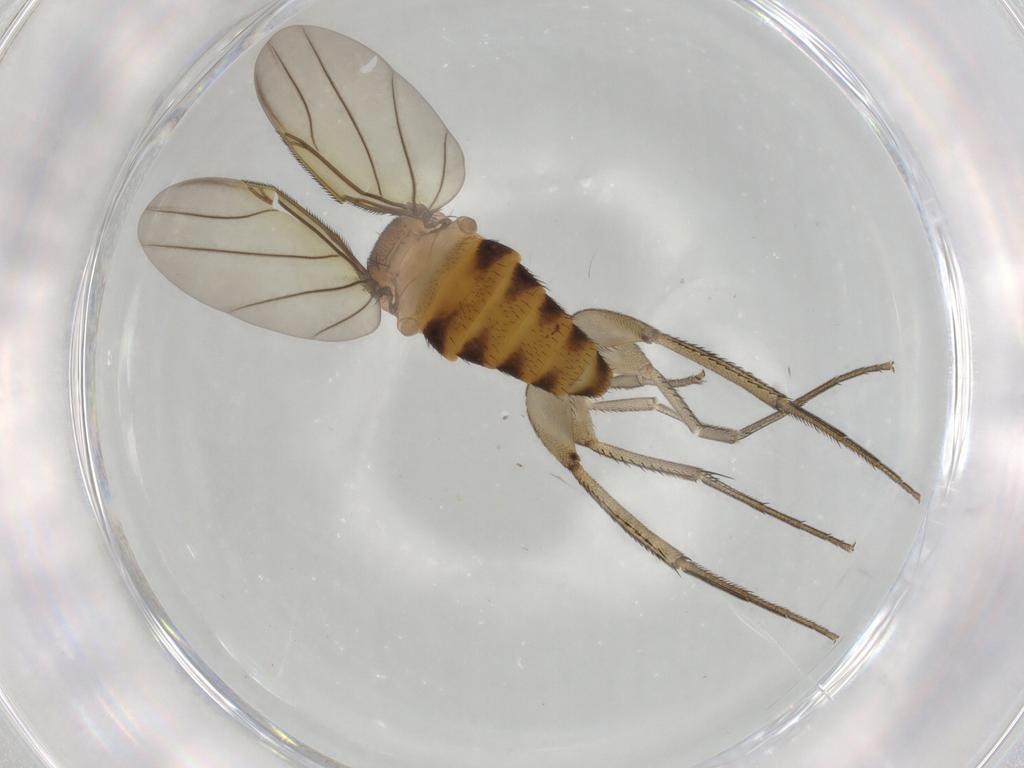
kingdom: Animalia
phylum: Arthropoda
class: Insecta
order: Diptera
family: Phoridae
